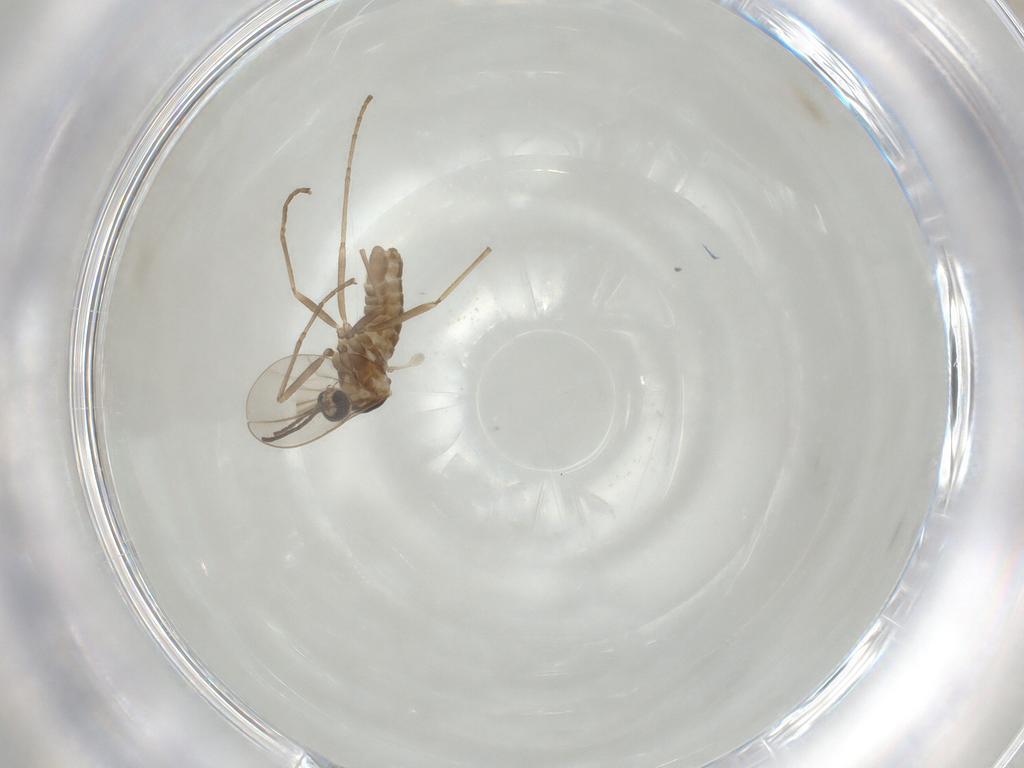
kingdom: Animalia
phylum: Arthropoda
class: Insecta
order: Diptera
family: Cecidomyiidae
